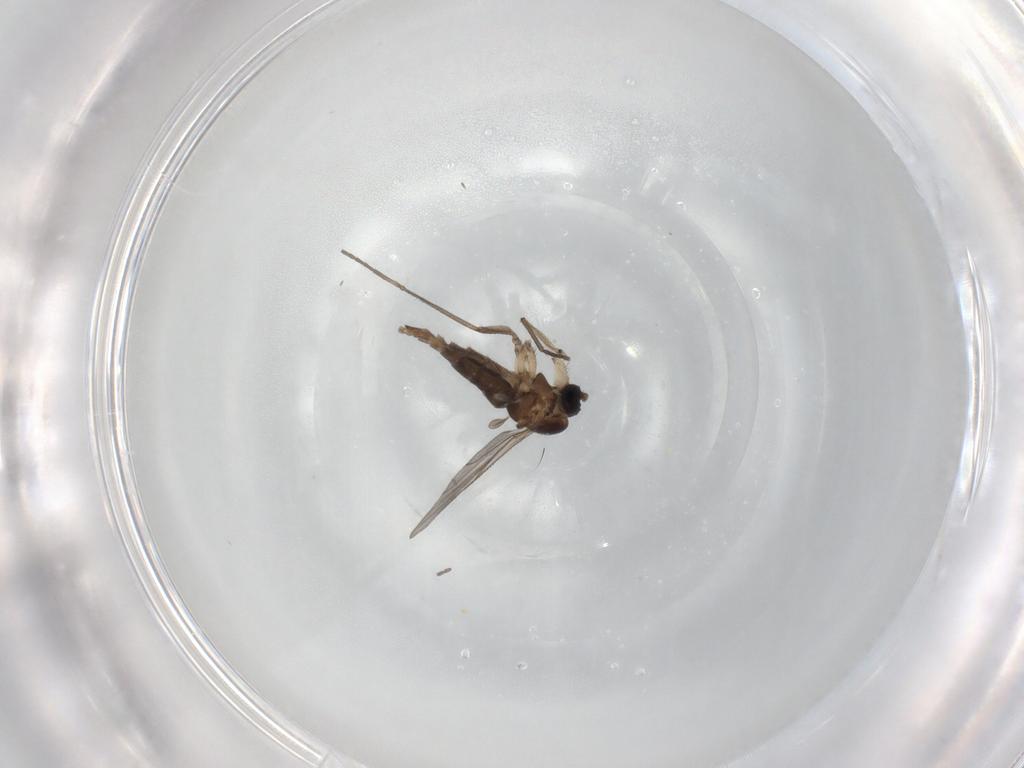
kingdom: Animalia
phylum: Arthropoda
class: Insecta
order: Diptera
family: Sciaridae
